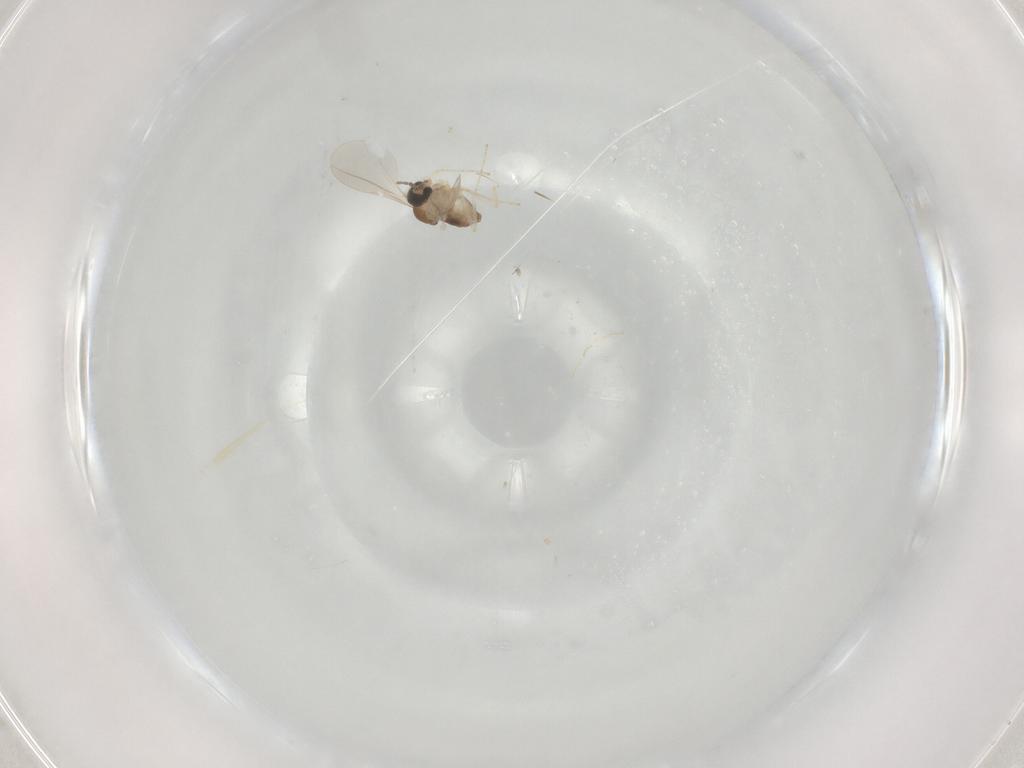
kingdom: Animalia
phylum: Arthropoda
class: Insecta
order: Diptera
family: Cecidomyiidae
